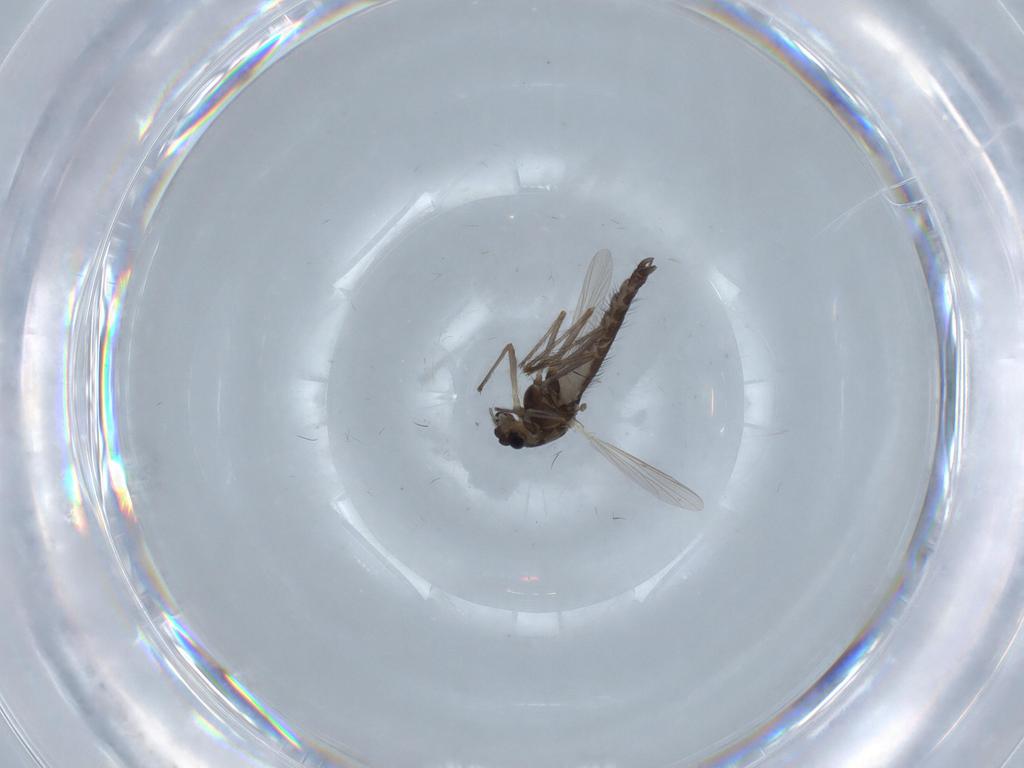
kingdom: Animalia
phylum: Arthropoda
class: Insecta
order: Diptera
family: Chironomidae
